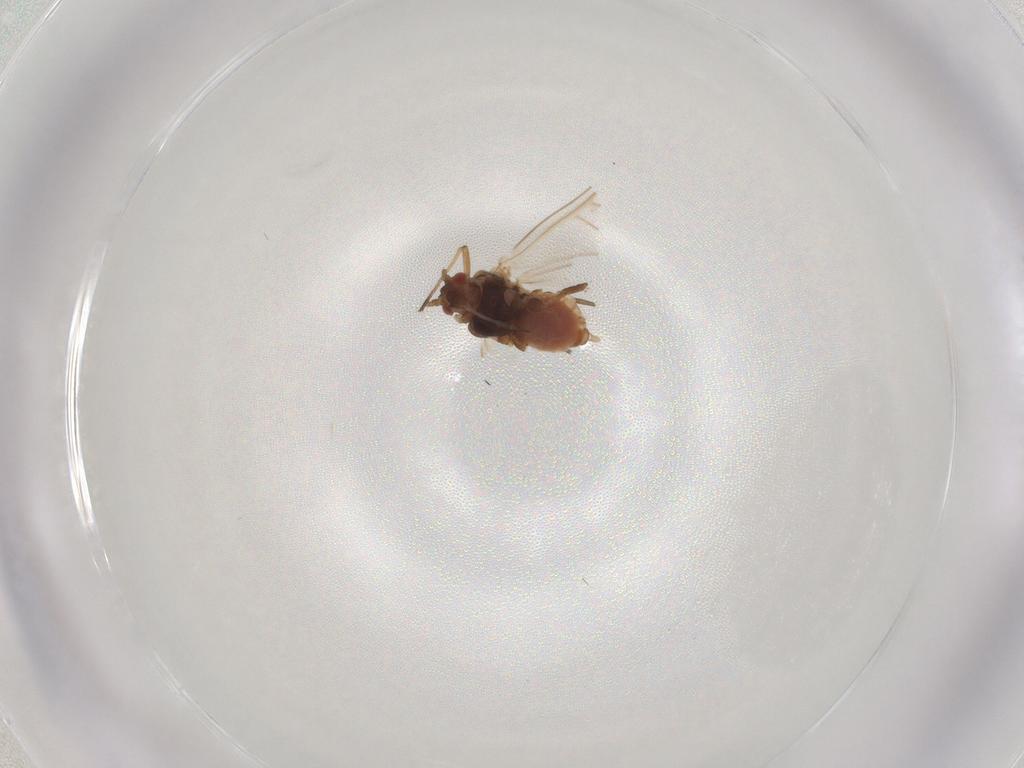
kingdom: Animalia
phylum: Arthropoda
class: Insecta
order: Hemiptera
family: Aphididae
